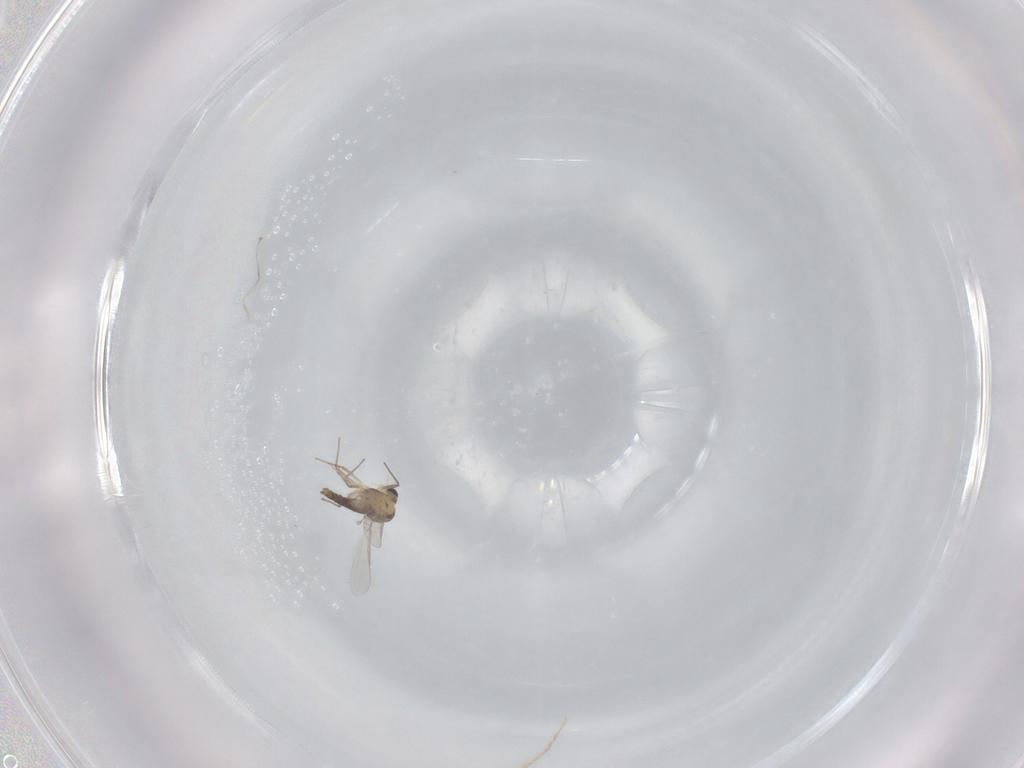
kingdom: Animalia
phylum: Arthropoda
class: Insecta
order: Diptera
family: Chironomidae
